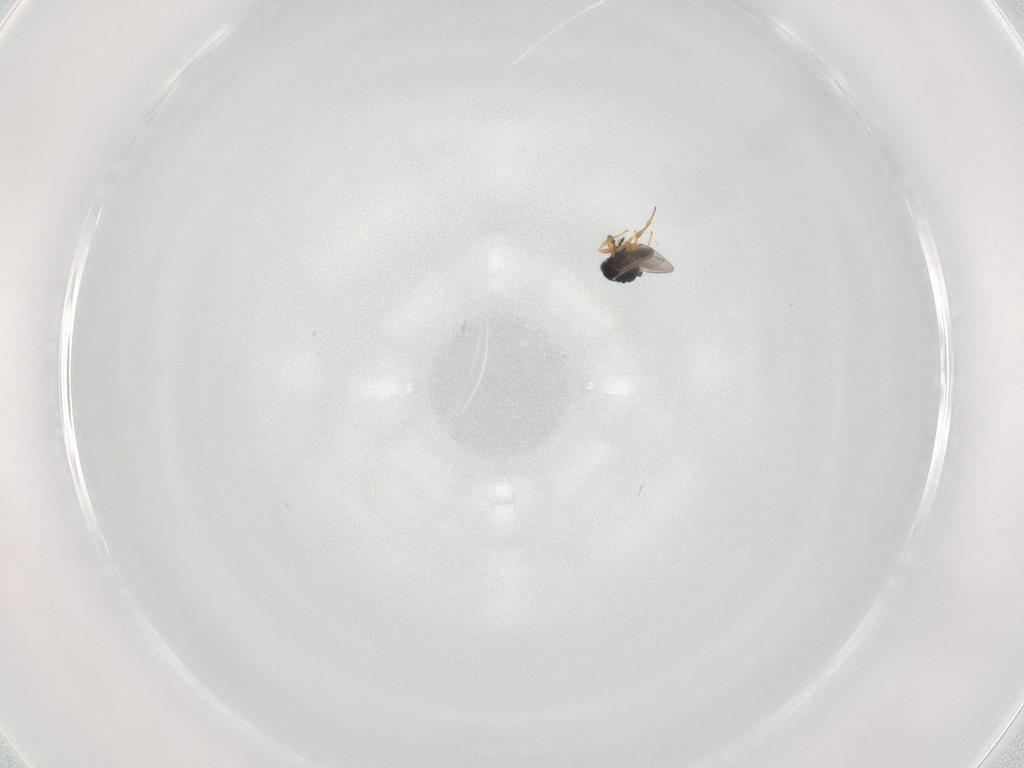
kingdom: Animalia
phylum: Arthropoda
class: Insecta
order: Hymenoptera
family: Platygastridae
